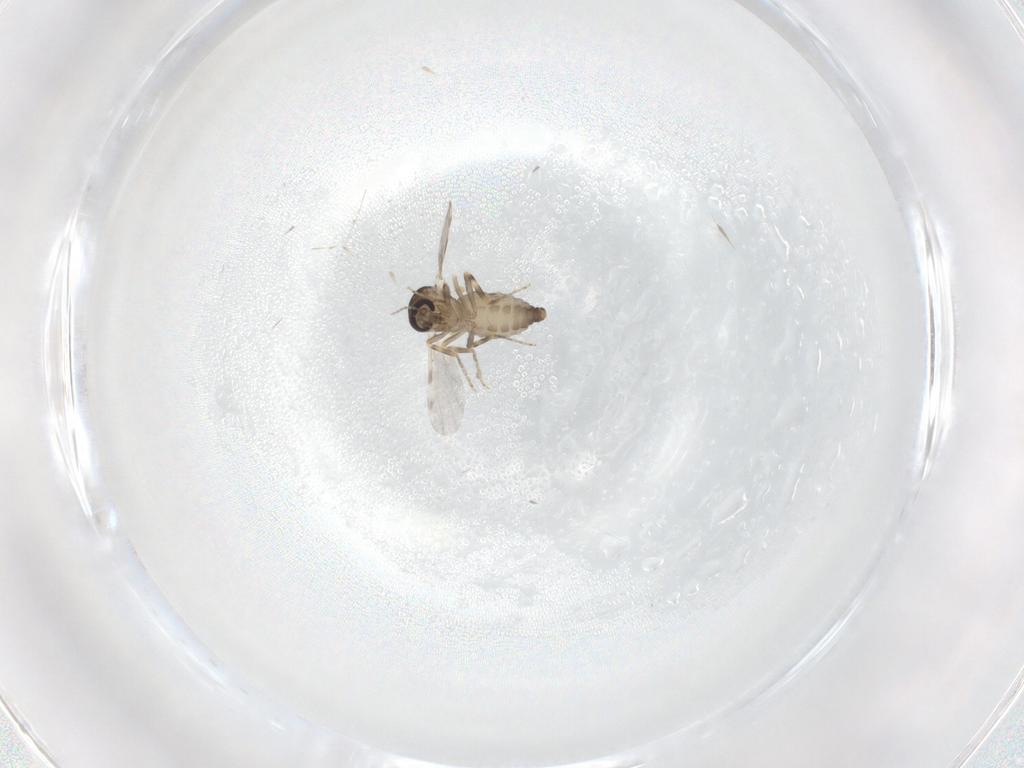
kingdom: Animalia
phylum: Arthropoda
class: Insecta
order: Diptera
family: Ceratopogonidae
